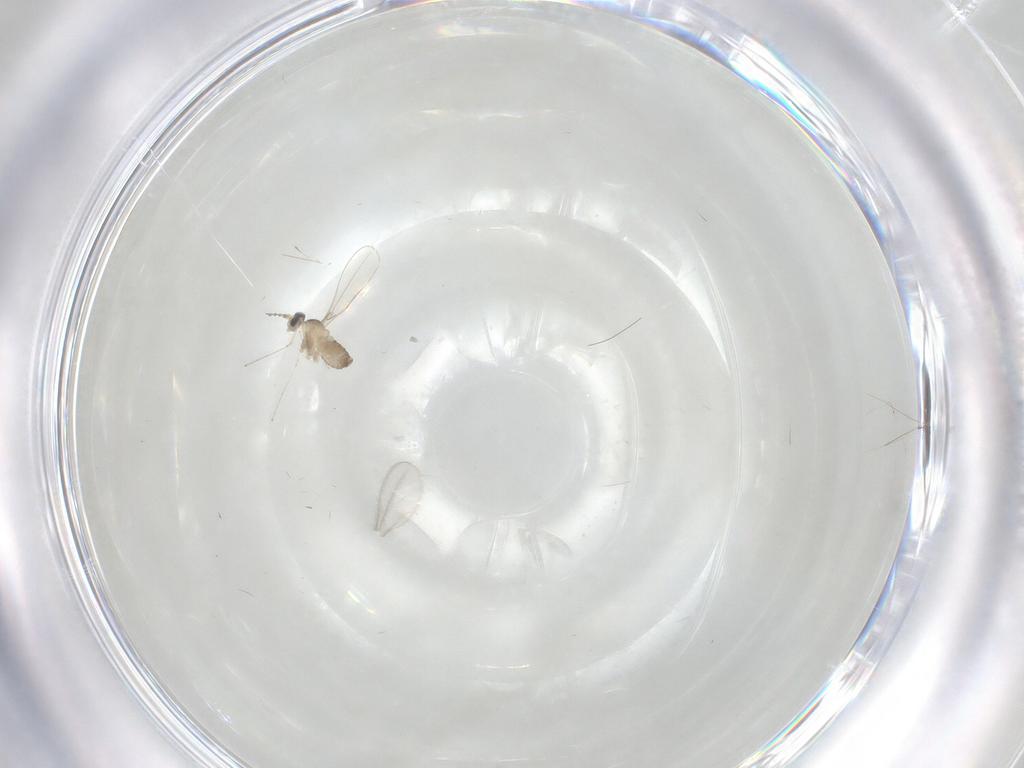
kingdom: Animalia
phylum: Arthropoda
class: Insecta
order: Diptera
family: Cecidomyiidae
